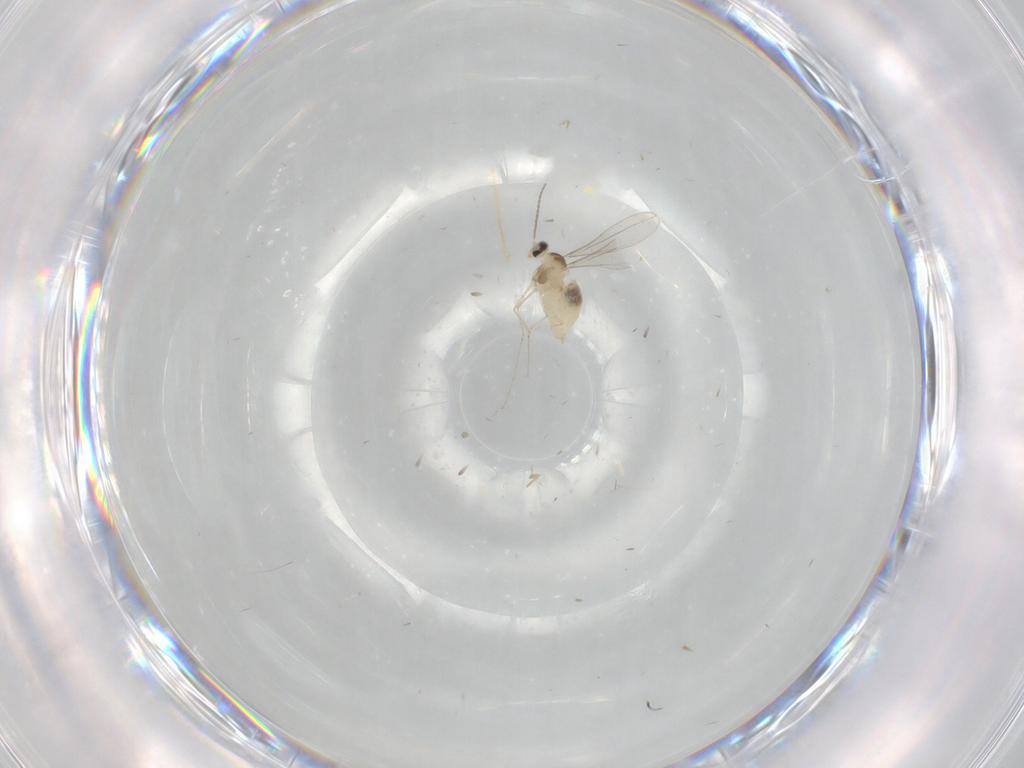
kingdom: Animalia
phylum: Arthropoda
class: Insecta
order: Diptera
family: Cecidomyiidae
